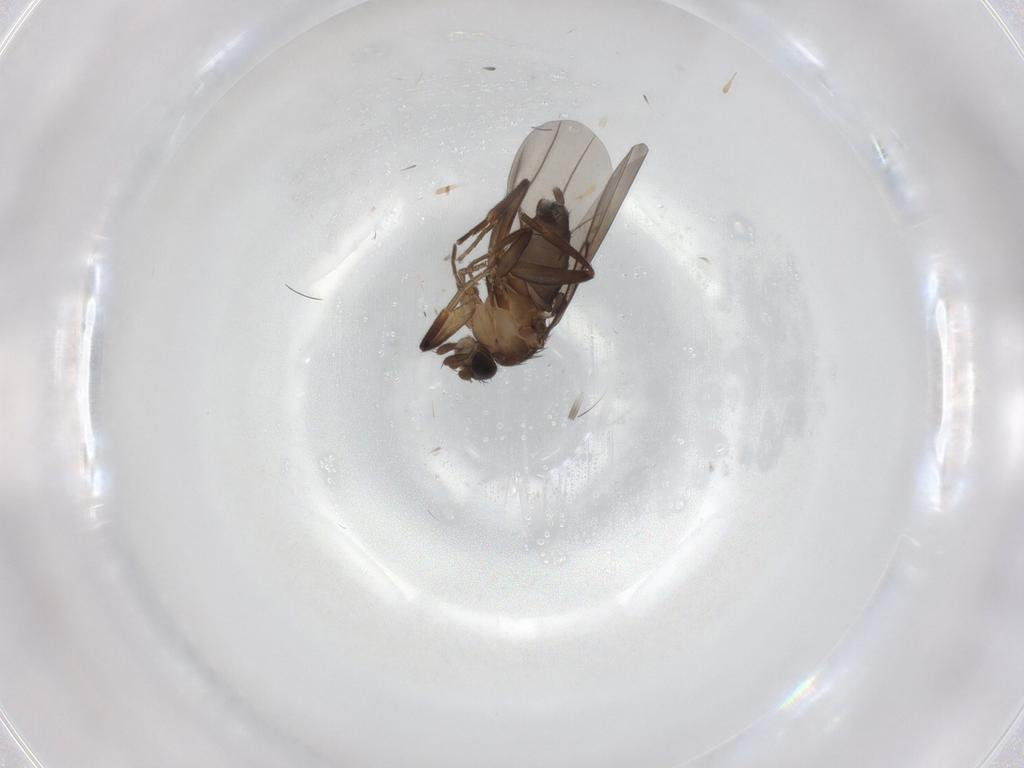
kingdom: Animalia
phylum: Arthropoda
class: Insecta
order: Diptera
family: Phoridae
